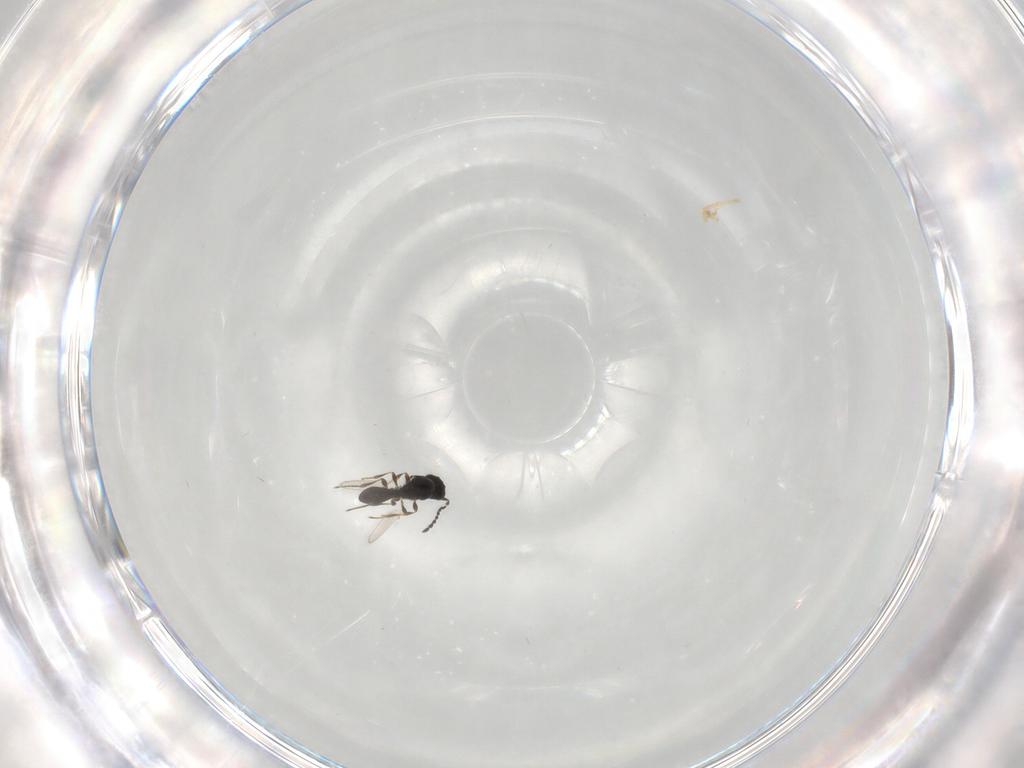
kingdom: Animalia
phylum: Arthropoda
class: Insecta
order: Hymenoptera
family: Platygastridae
